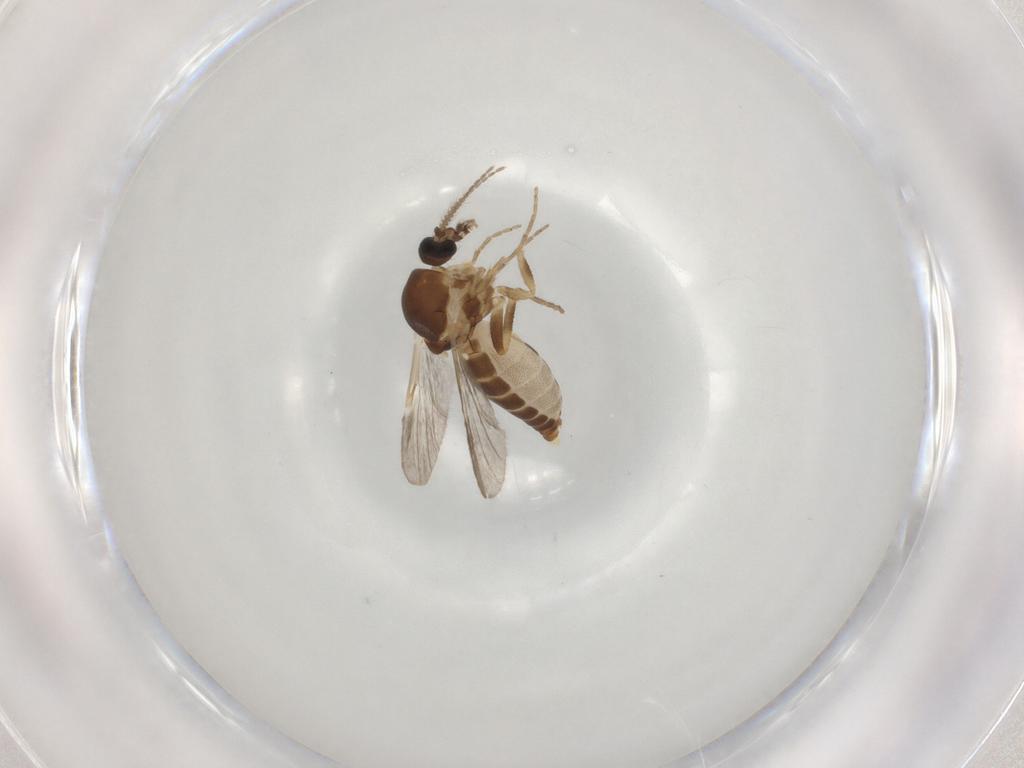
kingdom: Animalia
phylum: Arthropoda
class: Insecta
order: Diptera
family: Ceratopogonidae
